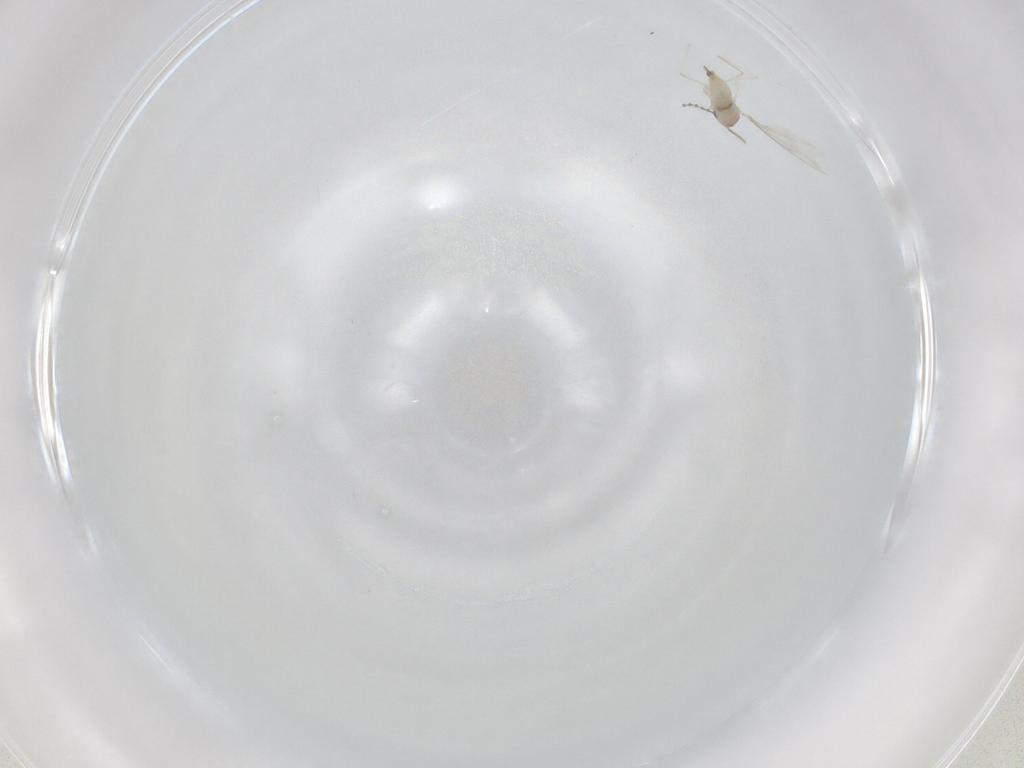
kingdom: Animalia
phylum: Arthropoda
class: Insecta
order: Diptera
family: Cecidomyiidae
